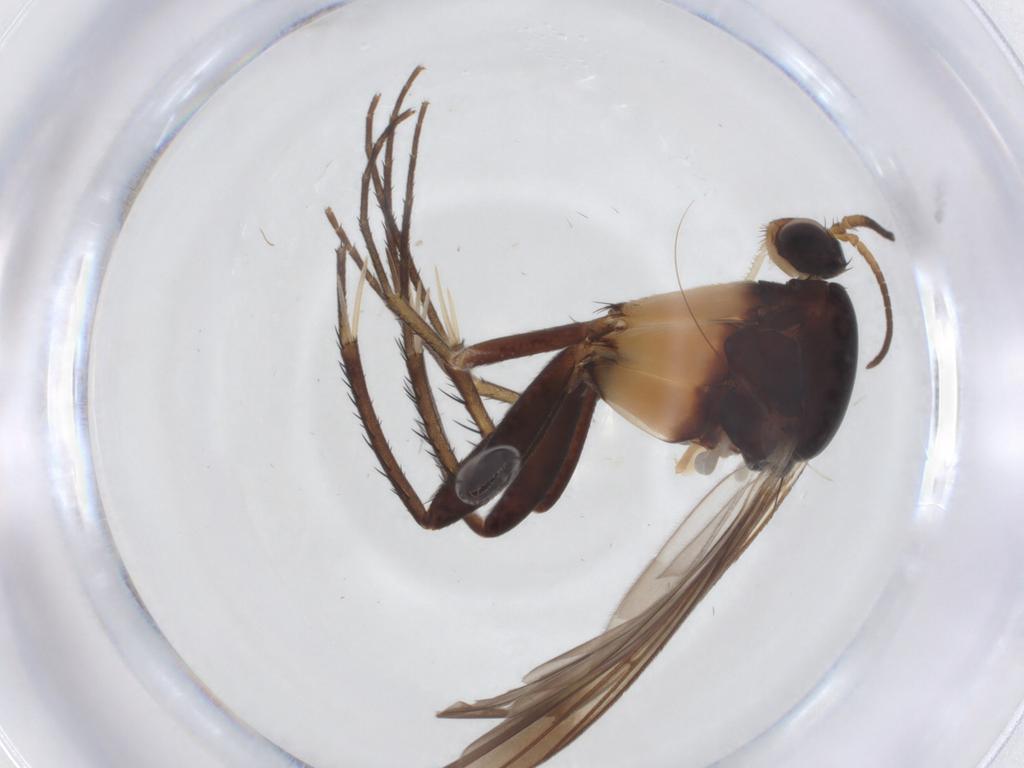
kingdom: Animalia
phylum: Arthropoda
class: Insecta
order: Diptera
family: Mycetophilidae
